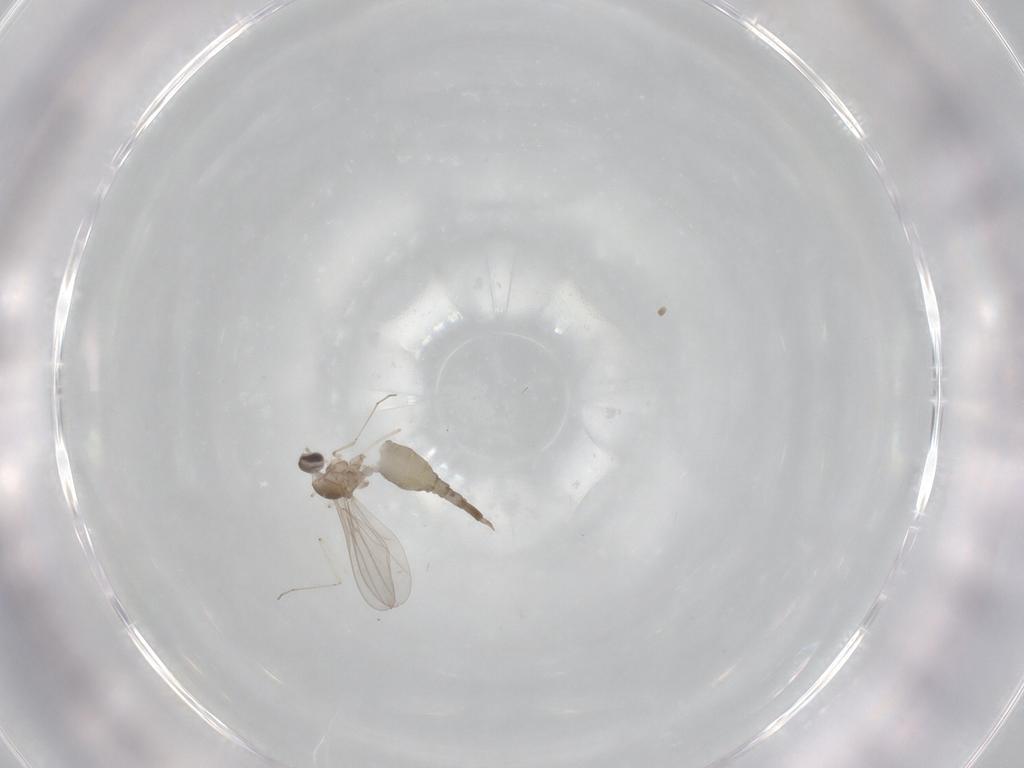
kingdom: Animalia
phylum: Arthropoda
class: Insecta
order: Diptera
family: Cecidomyiidae
